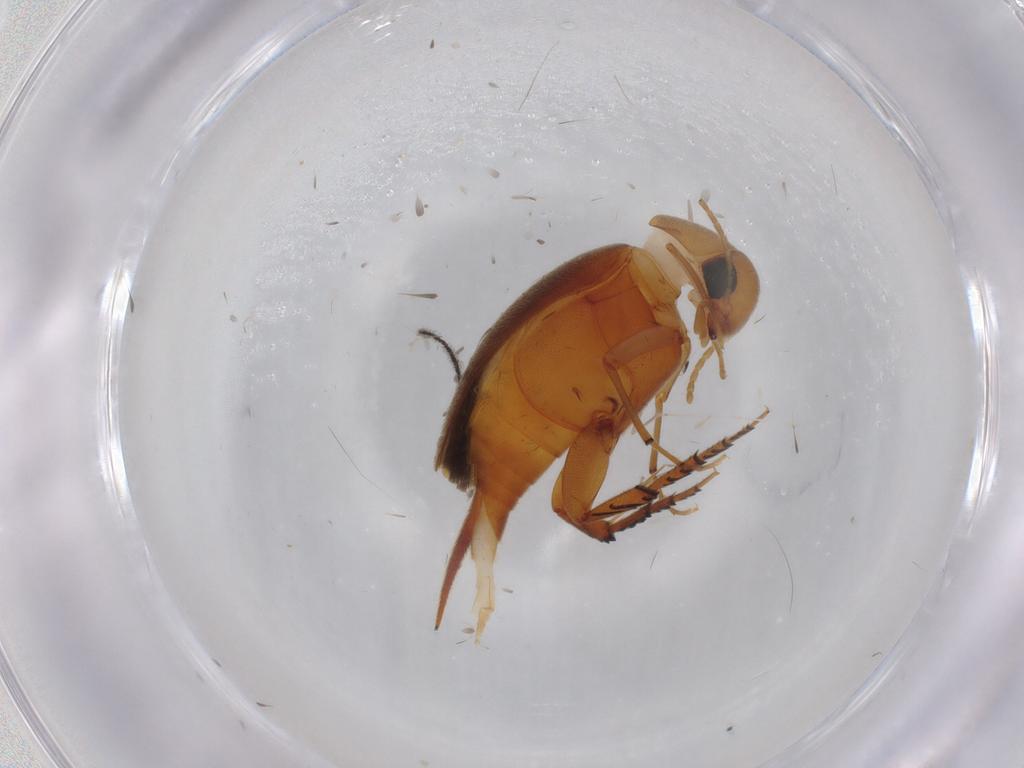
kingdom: Animalia
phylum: Arthropoda
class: Insecta
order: Coleoptera
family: Mordellidae
